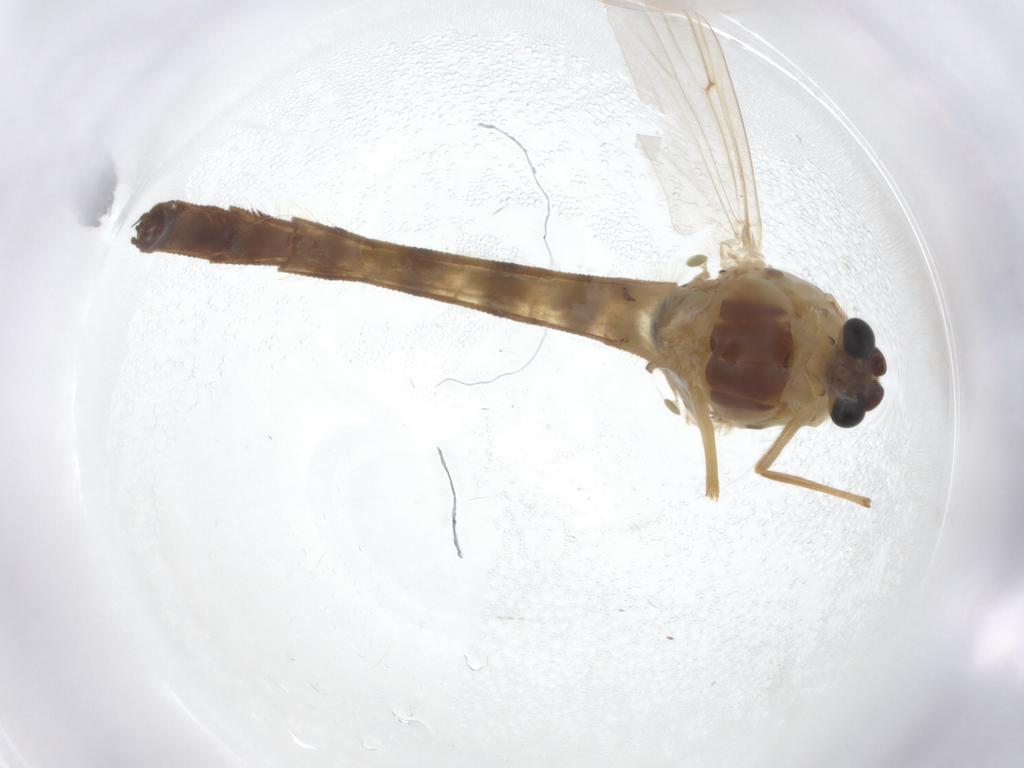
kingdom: Animalia
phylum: Arthropoda
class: Insecta
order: Diptera
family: Chironomidae
